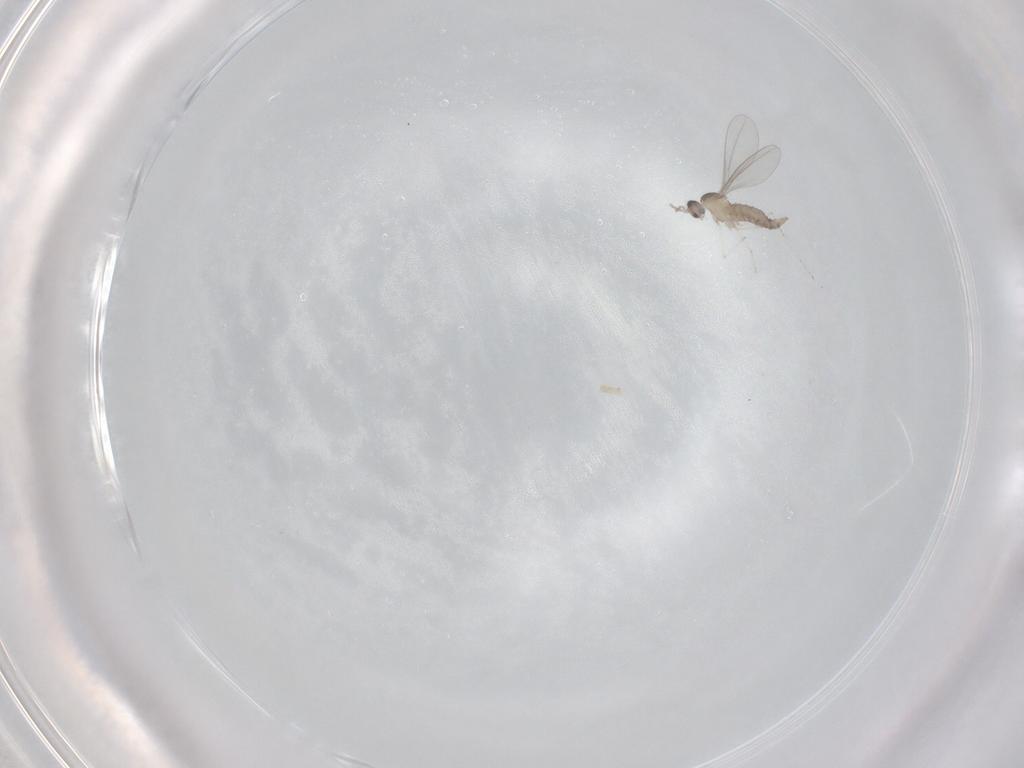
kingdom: Animalia
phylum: Arthropoda
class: Insecta
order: Diptera
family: Cecidomyiidae
